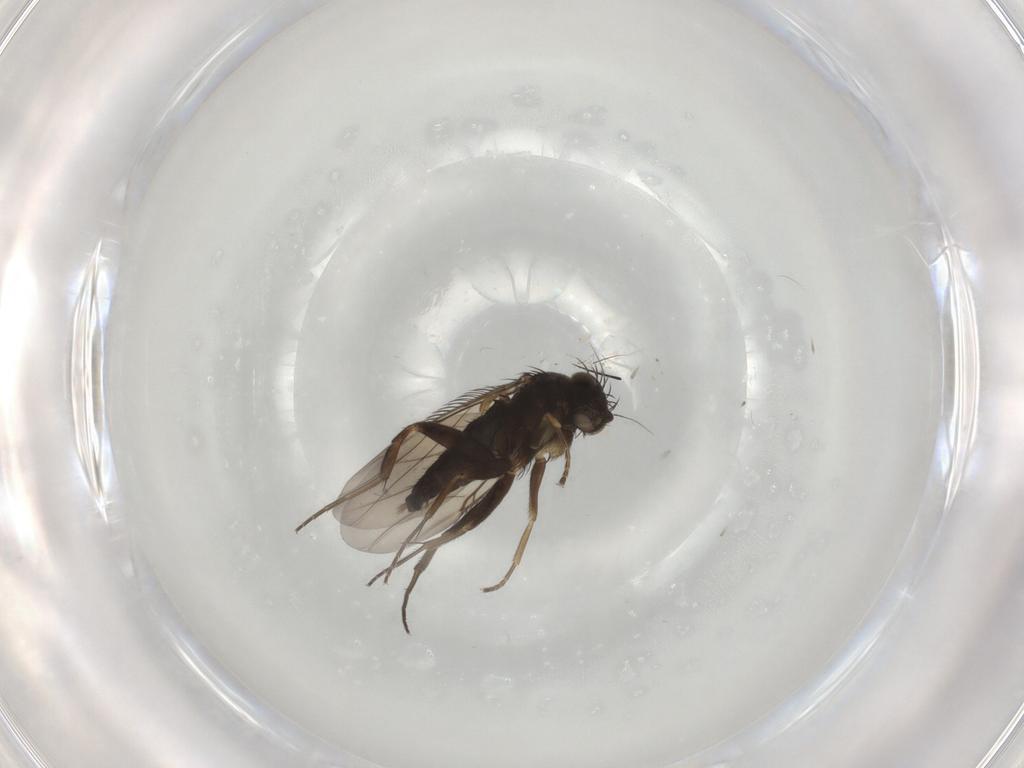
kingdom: Animalia
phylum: Arthropoda
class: Insecta
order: Diptera
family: Phoridae
